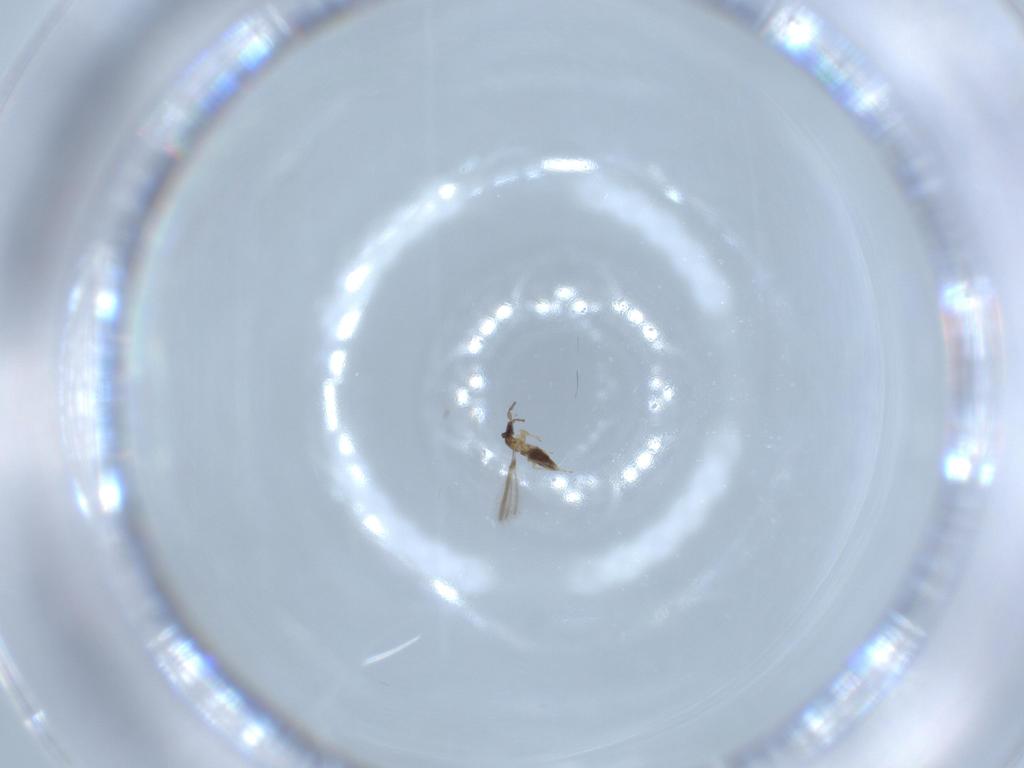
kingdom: Animalia
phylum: Arthropoda
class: Insecta
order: Hymenoptera
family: Mymaridae
